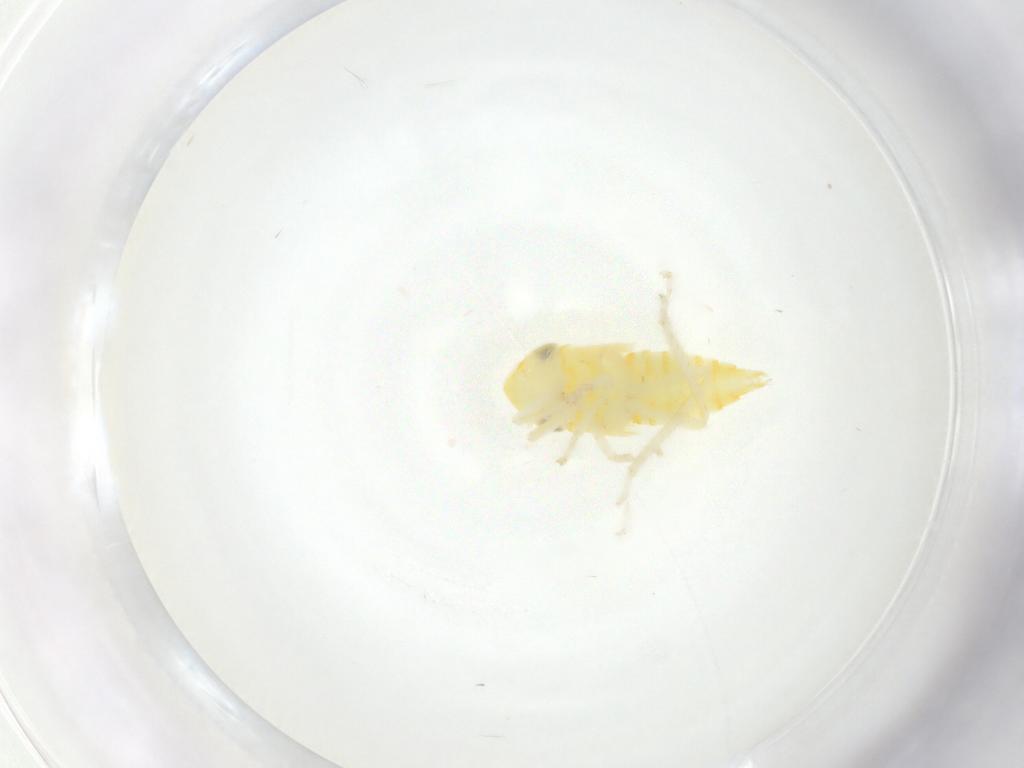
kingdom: Animalia
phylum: Arthropoda
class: Insecta
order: Hemiptera
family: Cicadellidae
